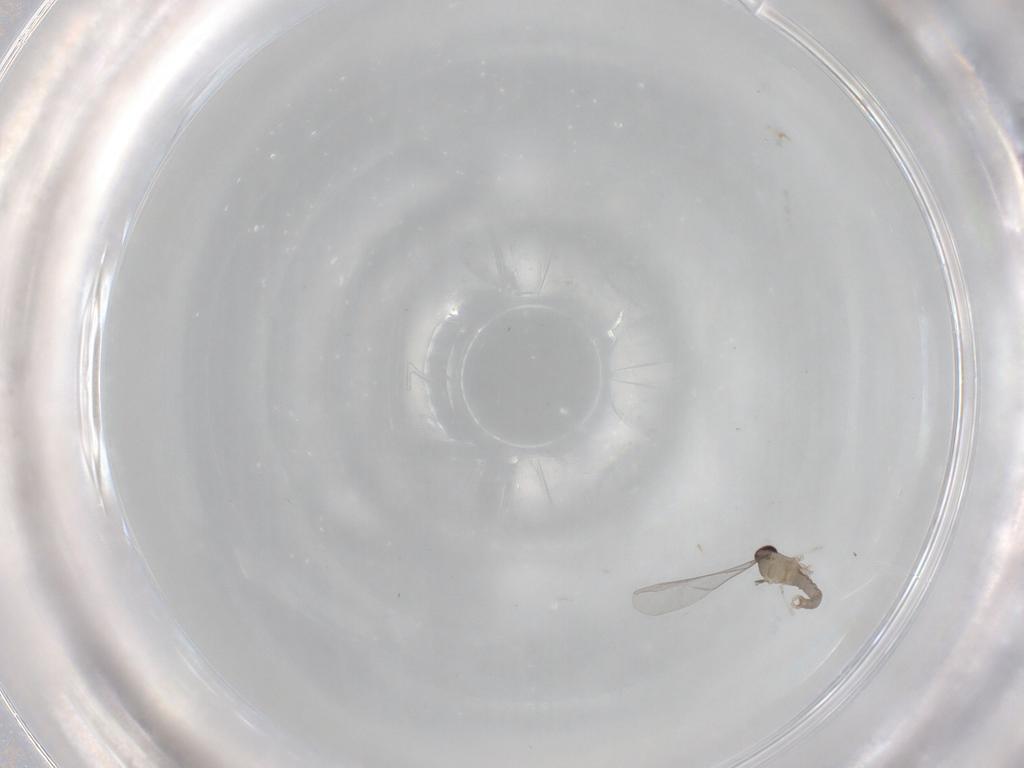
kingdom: Animalia
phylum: Arthropoda
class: Insecta
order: Diptera
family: Cecidomyiidae
